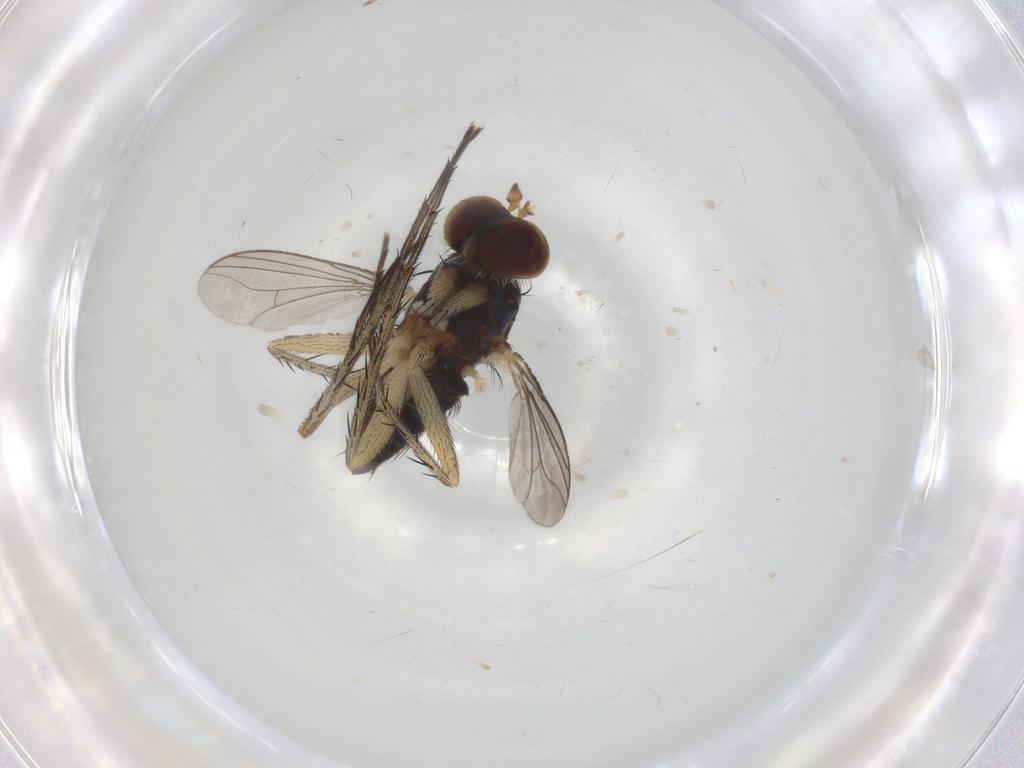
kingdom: Animalia
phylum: Arthropoda
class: Insecta
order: Diptera
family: Dolichopodidae
